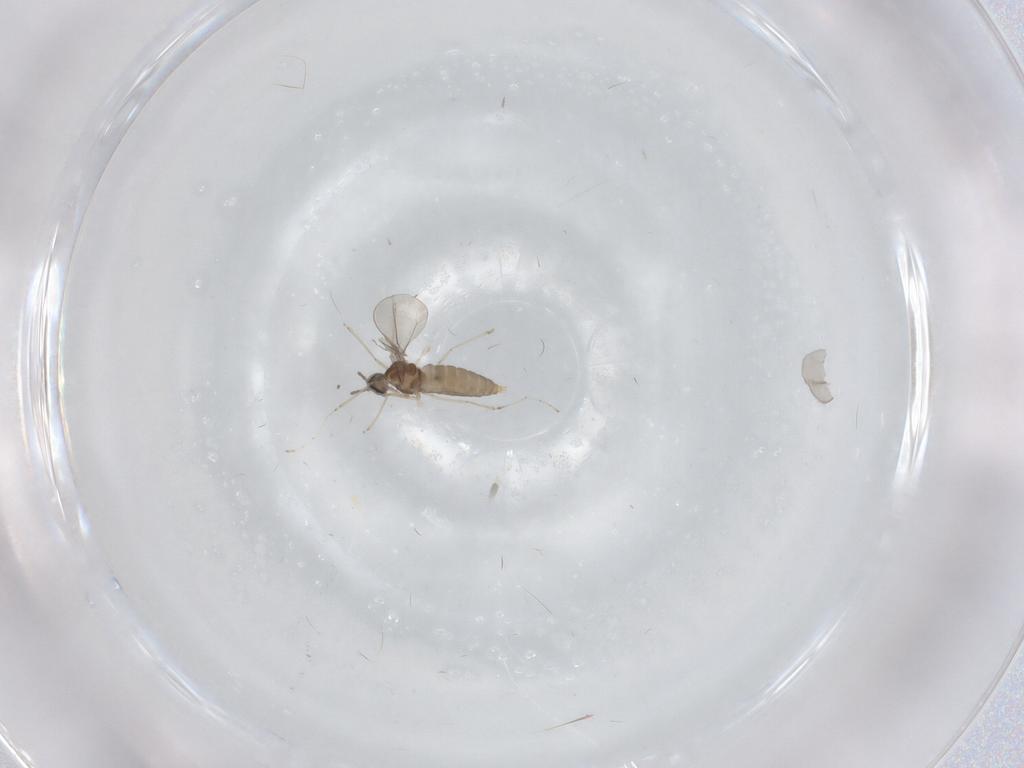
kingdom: Animalia
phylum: Arthropoda
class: Insecta
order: Diptera
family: Cecidomyiidae
